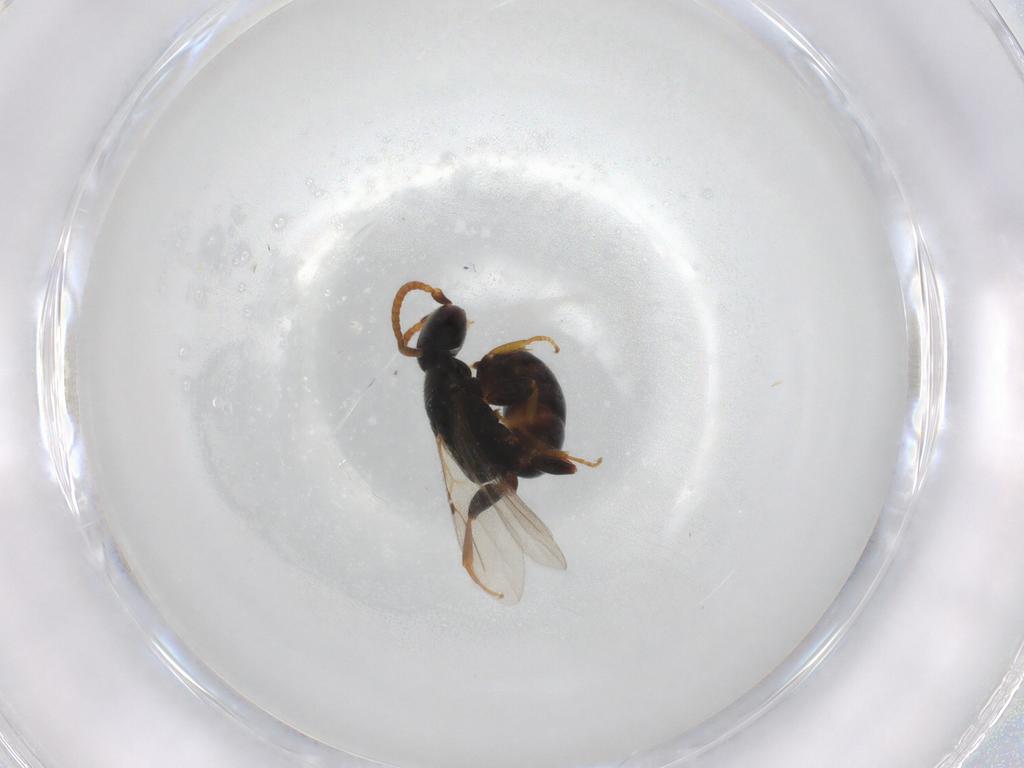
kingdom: Animalia
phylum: Arthropoda
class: Insecta
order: Hymenoptera
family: Bethylidae
